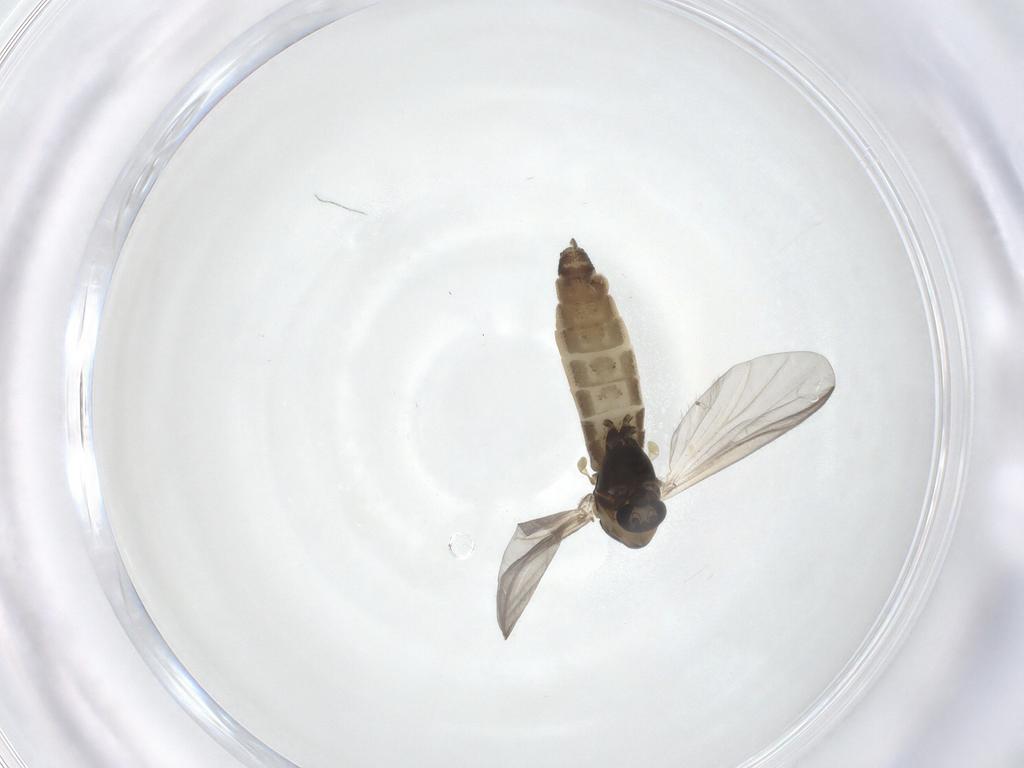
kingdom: Animalia
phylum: Arthropoda
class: Insecta
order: Diptera
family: Chironomidae
